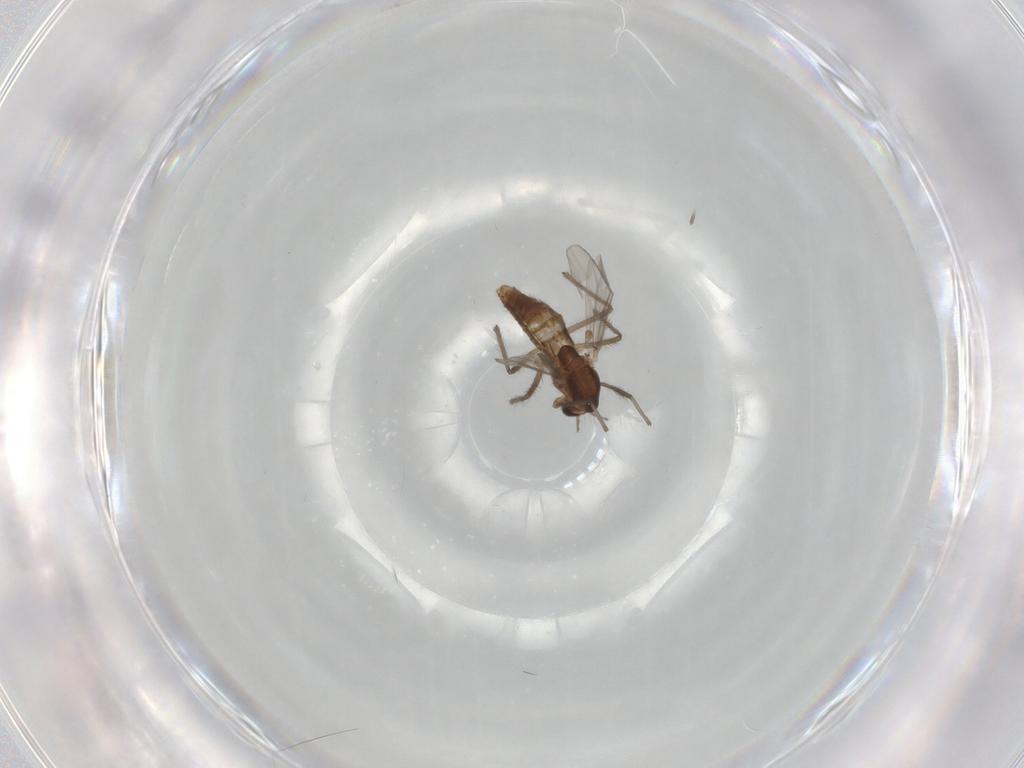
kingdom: Animalia
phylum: Arthropoda
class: Insecta
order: Diptera
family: Chironomidae
